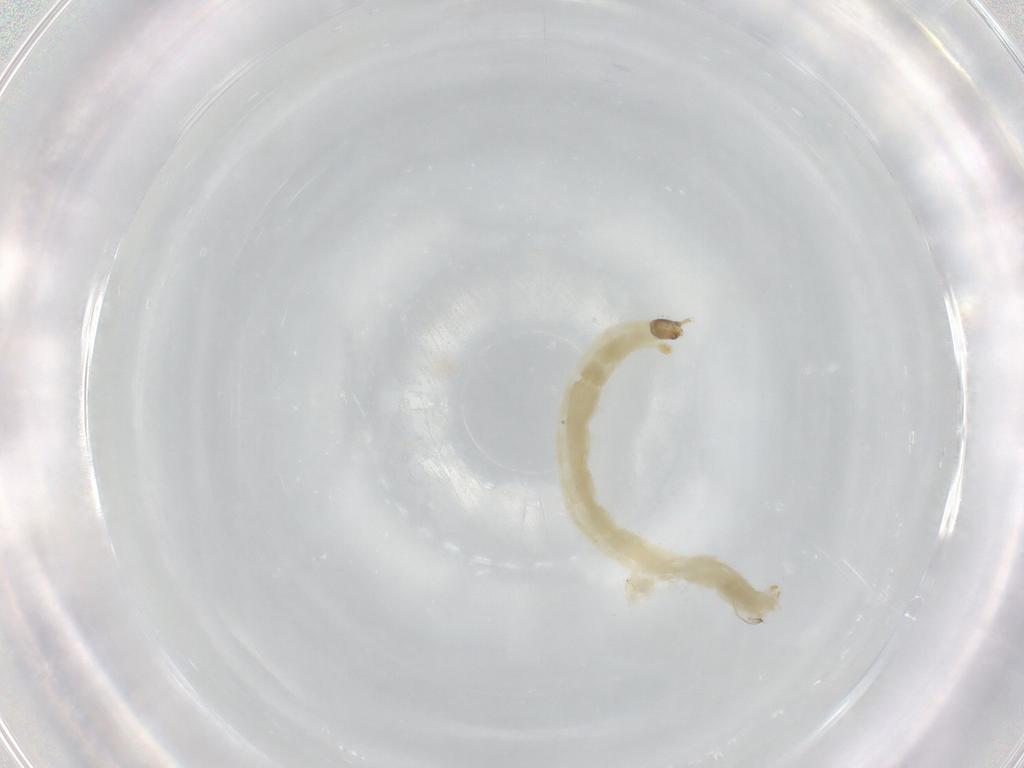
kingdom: Animalia
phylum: Arthropoda
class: Insecta
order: Diptera
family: Chironomidae
